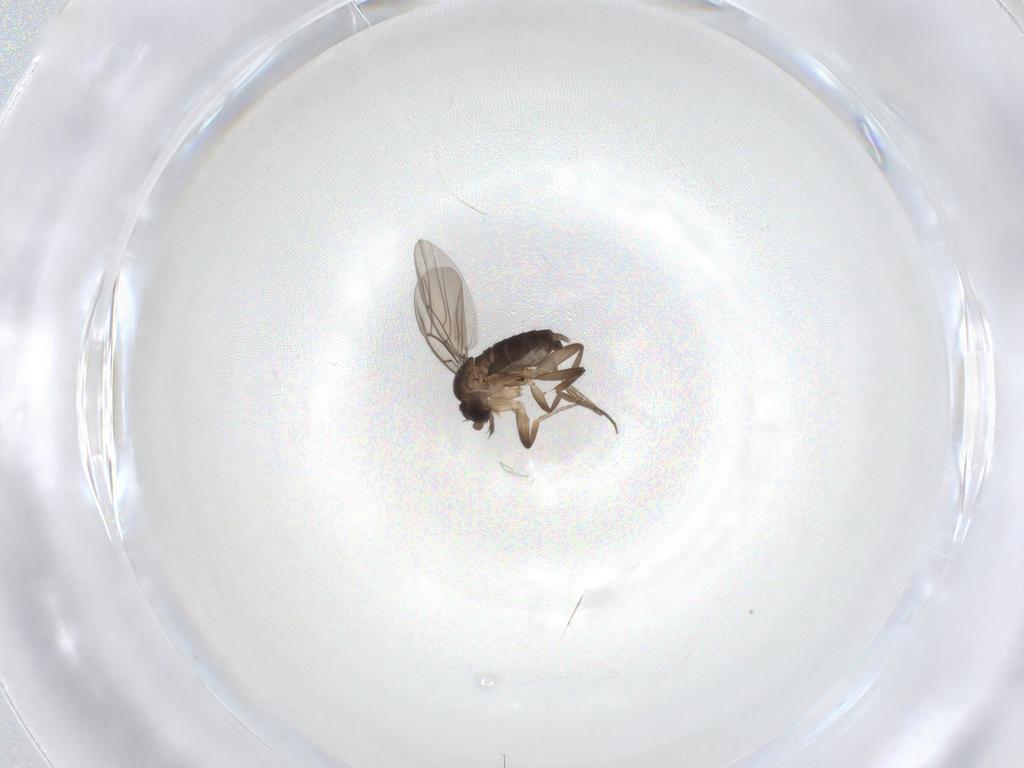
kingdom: Animalia
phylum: Arthropoda
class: Insecta
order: Diptera
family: Phoridae
